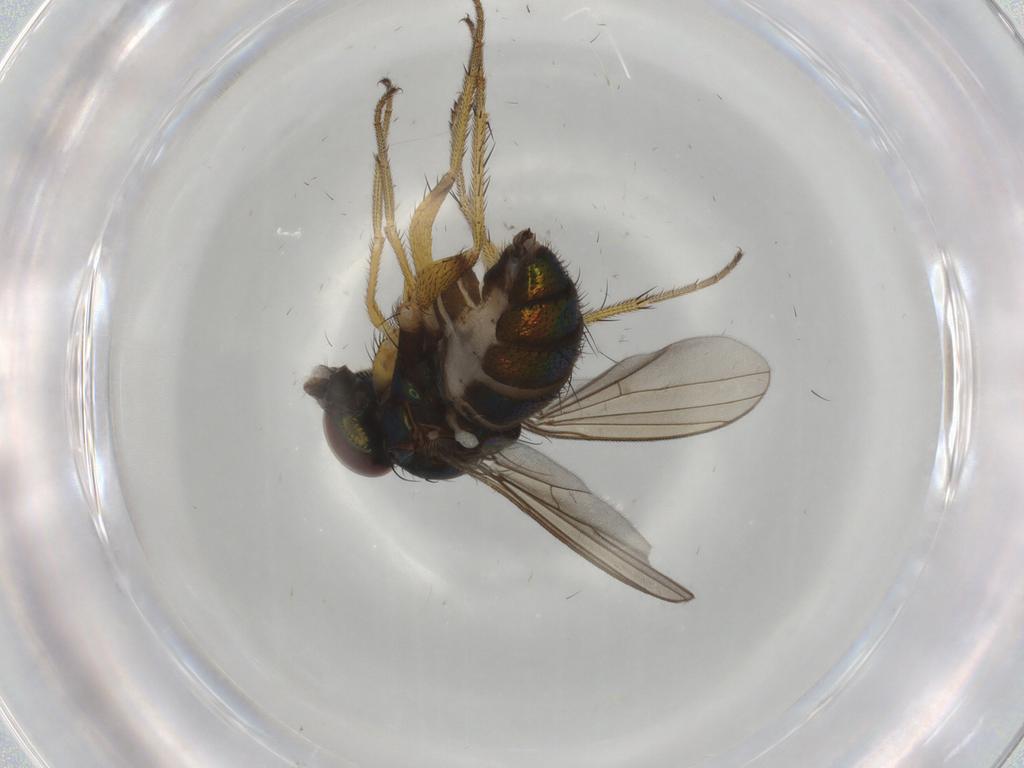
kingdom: Animalia
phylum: Arthropoda
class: Insecta
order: Diptera
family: Dolichopodidae
